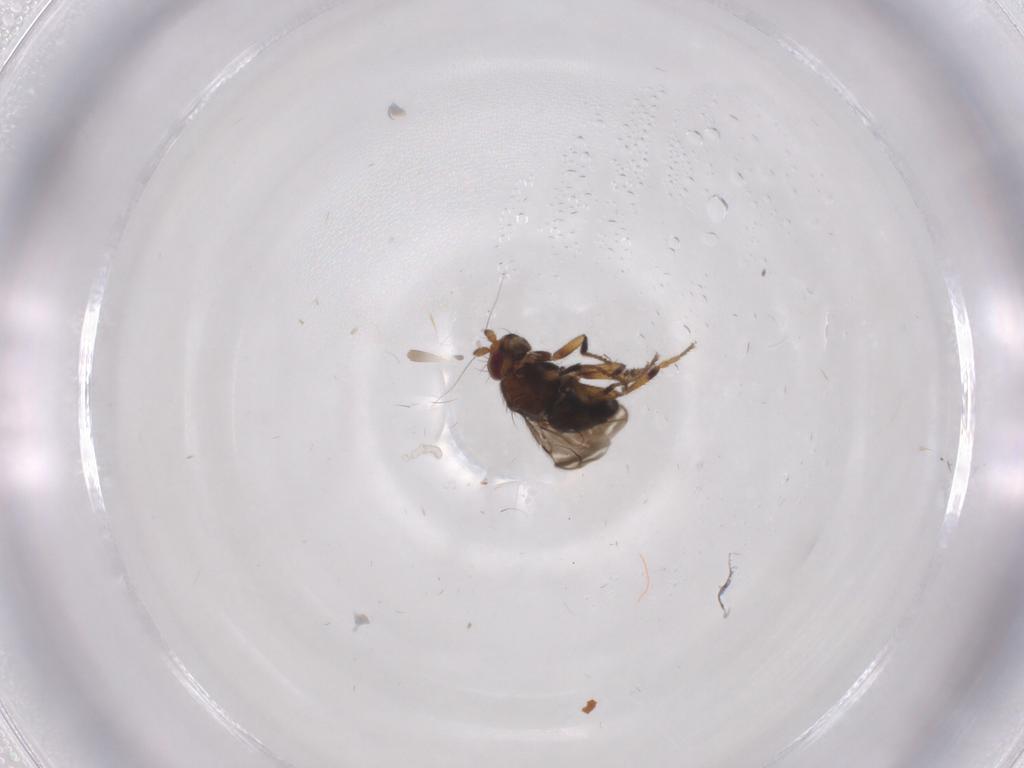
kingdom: Animalia
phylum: Arthropoda
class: Insecta
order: Diptera
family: Sphaeroceridae
